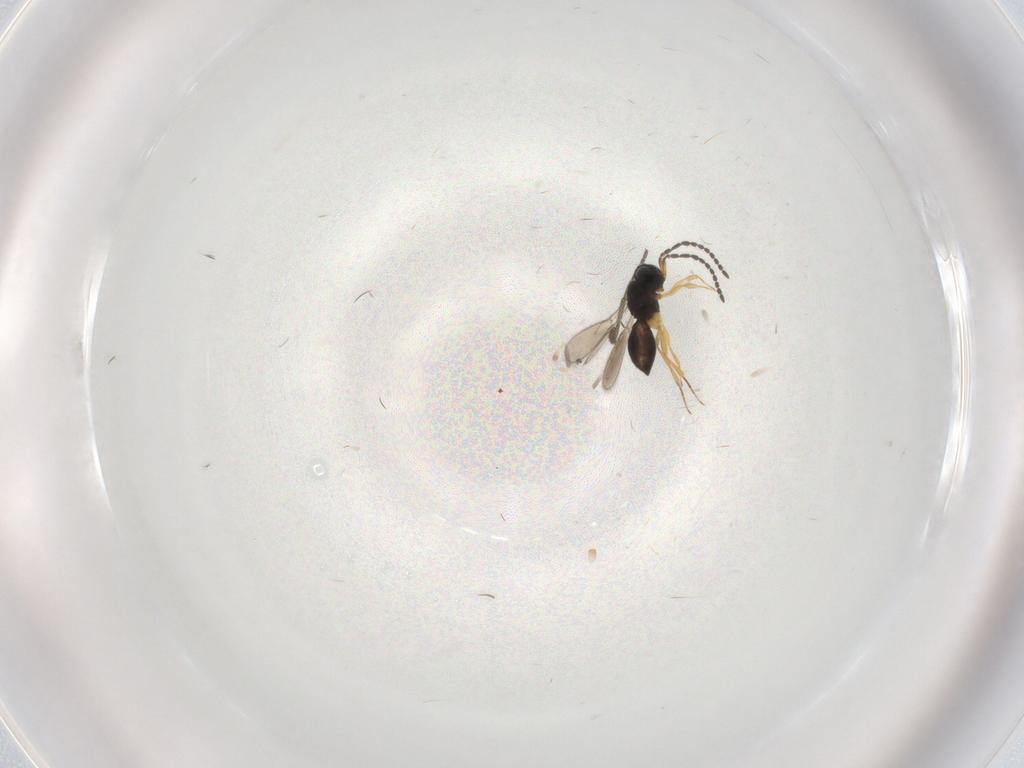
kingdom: Animalia
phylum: Arthropoda
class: Insecta
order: Hymenoptera
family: Scelionidae
